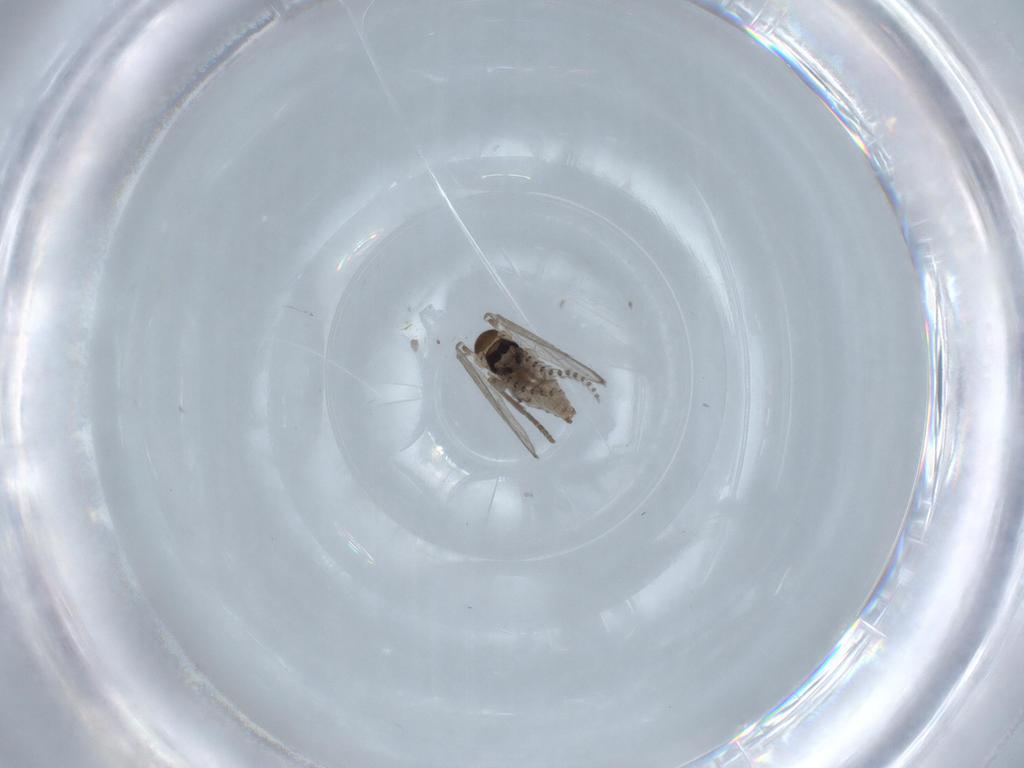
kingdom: Animalia
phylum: Arthropoda
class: Insecta
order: Diptera
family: Psychodidae
